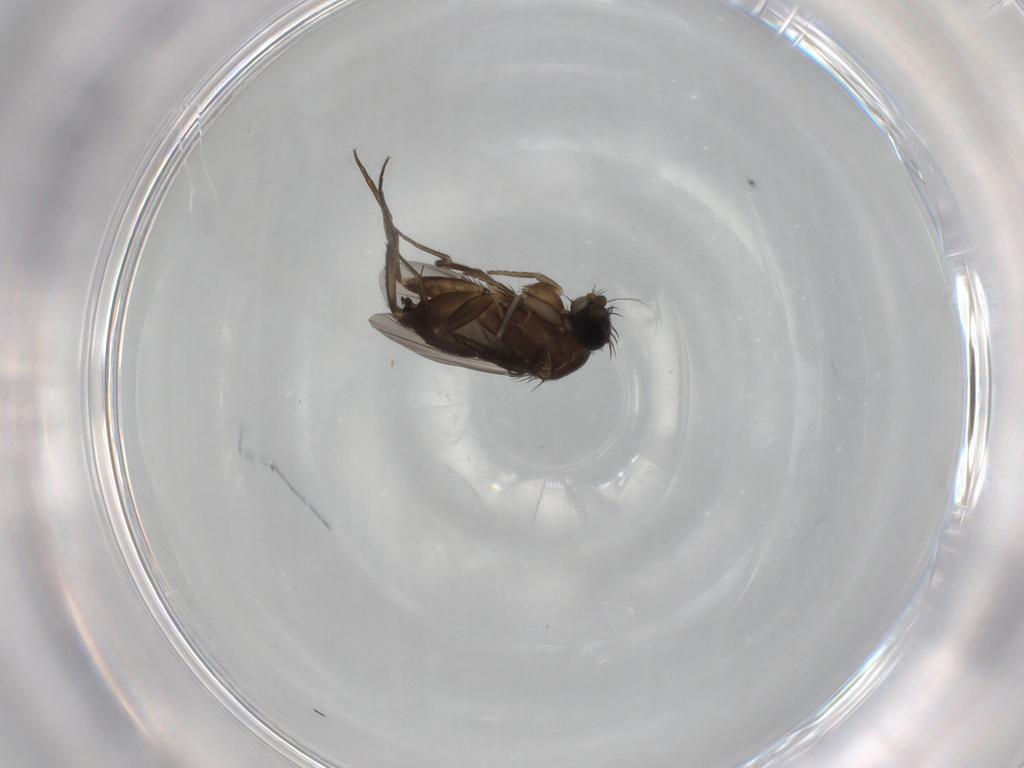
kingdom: Animalia
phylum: Arthropoda
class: Insecta
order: Diptera
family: Phoridae
